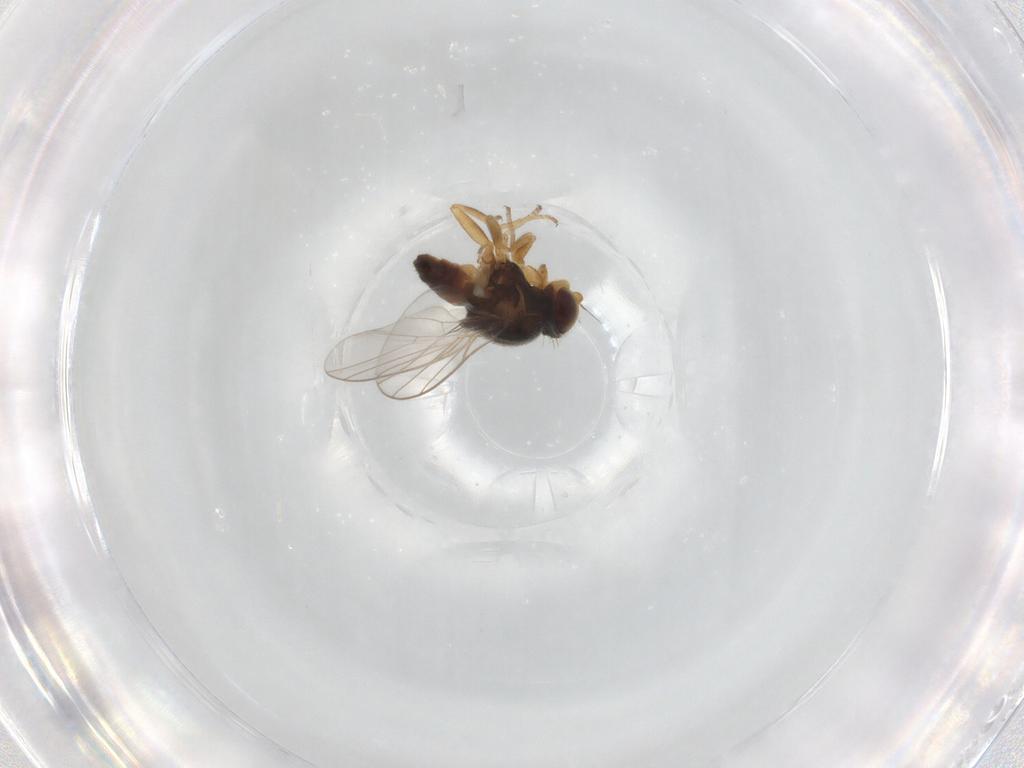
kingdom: Animalia
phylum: Arthropoda
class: Insecta
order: Diptera
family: Chloropidae
